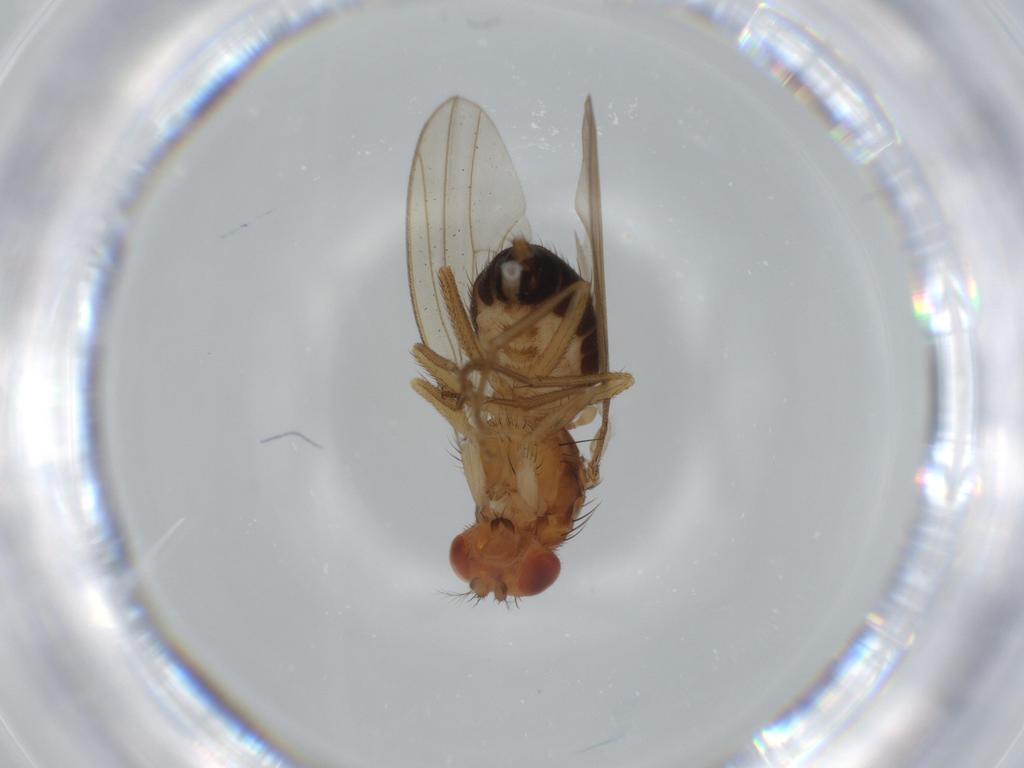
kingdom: Animalia
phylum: Arthropoda
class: Insecta
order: Diptera
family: Drosophilidae
